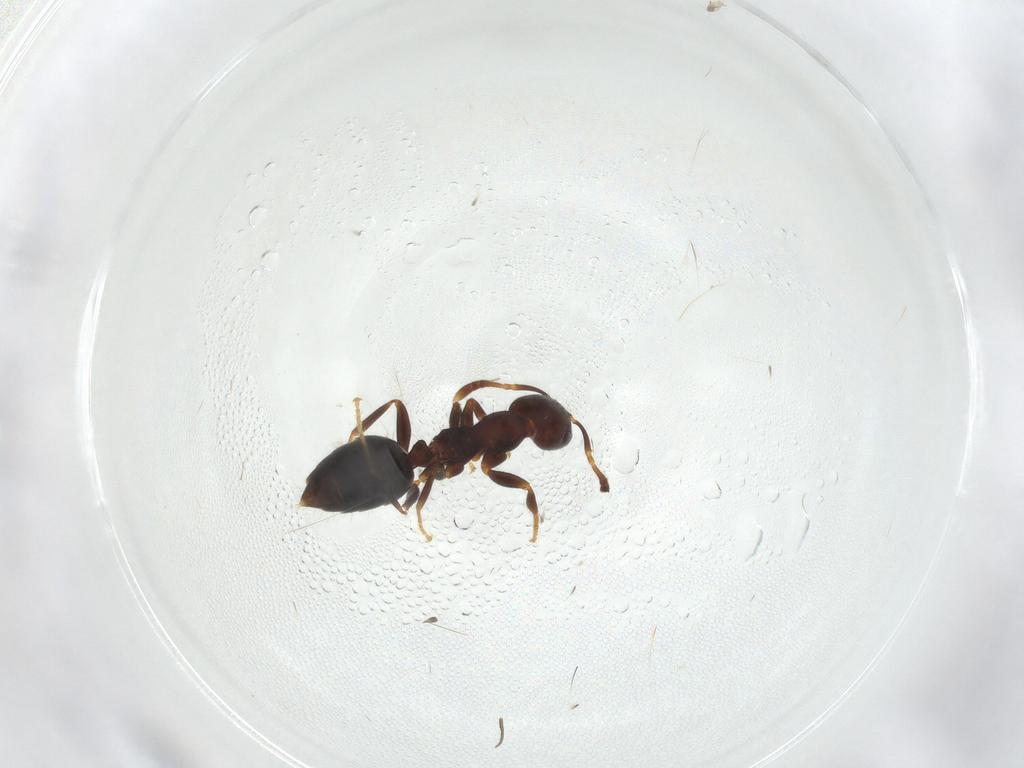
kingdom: Animalia
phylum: Arthropoda
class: Insecta
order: Hymenoptera
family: Formicidae
